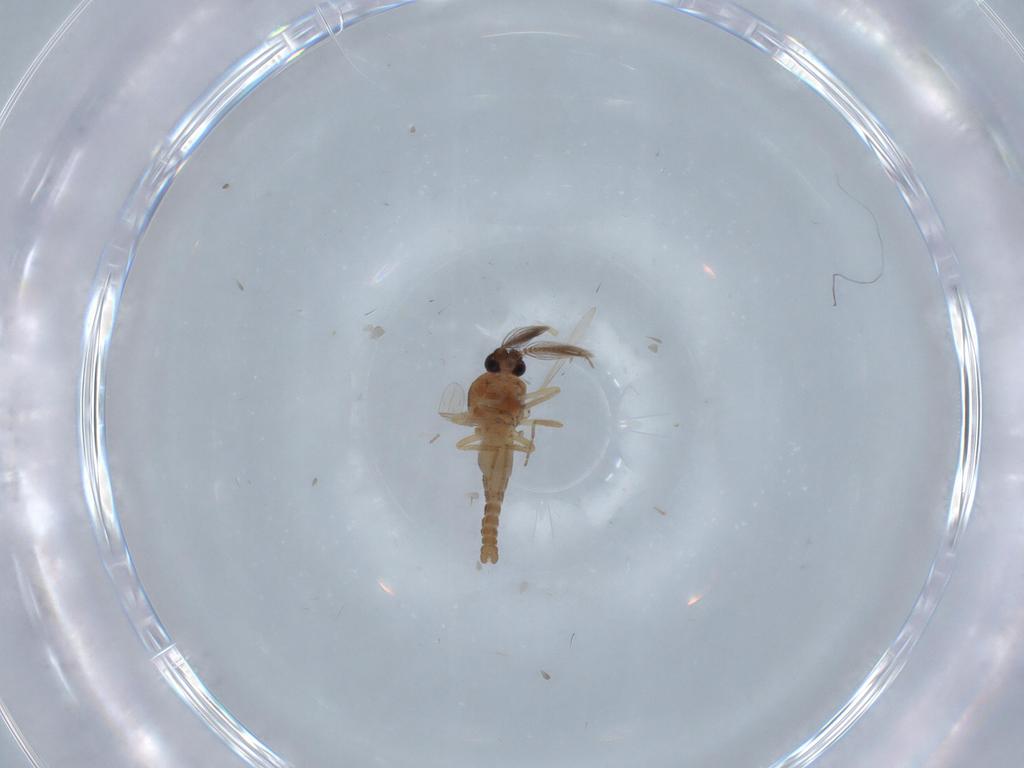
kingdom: Animalia
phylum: Arthropoda
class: Insecta
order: Diptera
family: Ceratopogonidae
